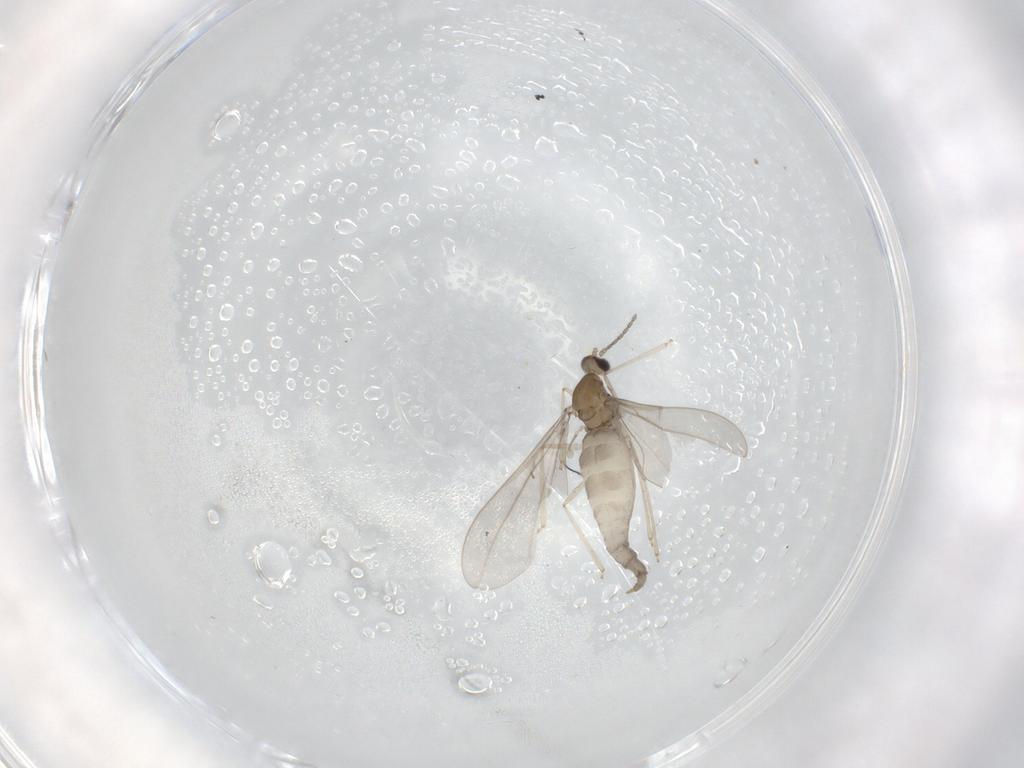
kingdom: Animalia
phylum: Arthropoda
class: Insecta
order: Diptera
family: Cecidomyiidae
